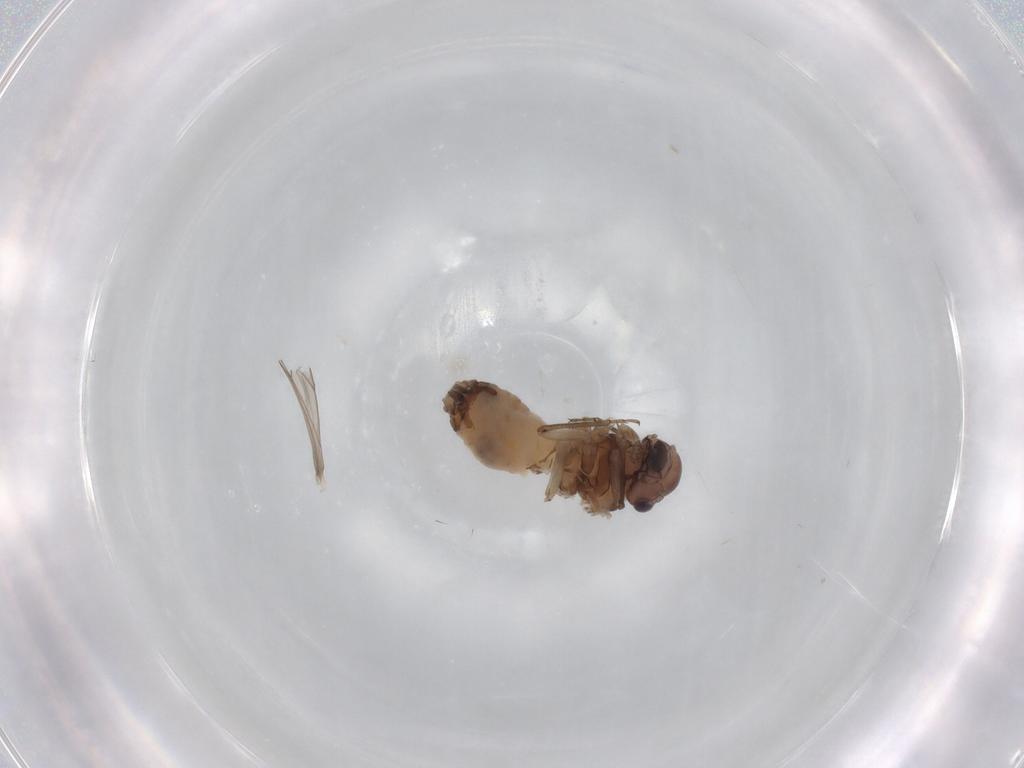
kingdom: Animalia
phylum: Arthropoda
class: Insecta
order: Psocodea
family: Peripsocidae
